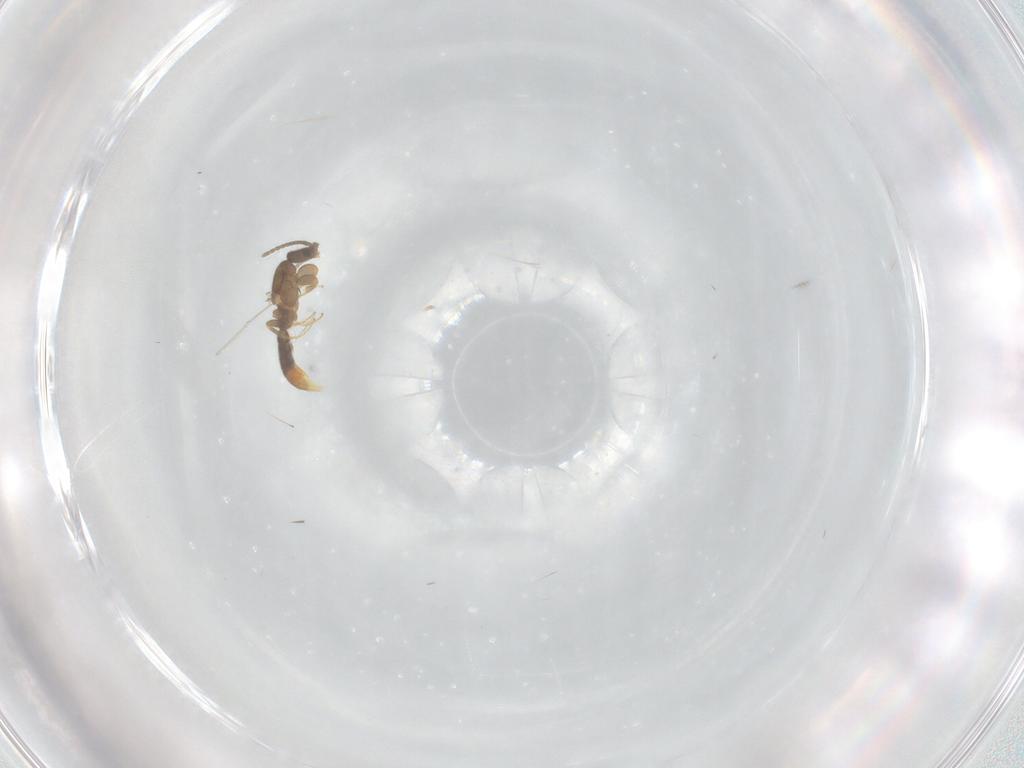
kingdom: Animalia
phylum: Arthropoda
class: Insecta
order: Hymenoptera
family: Formicidae
